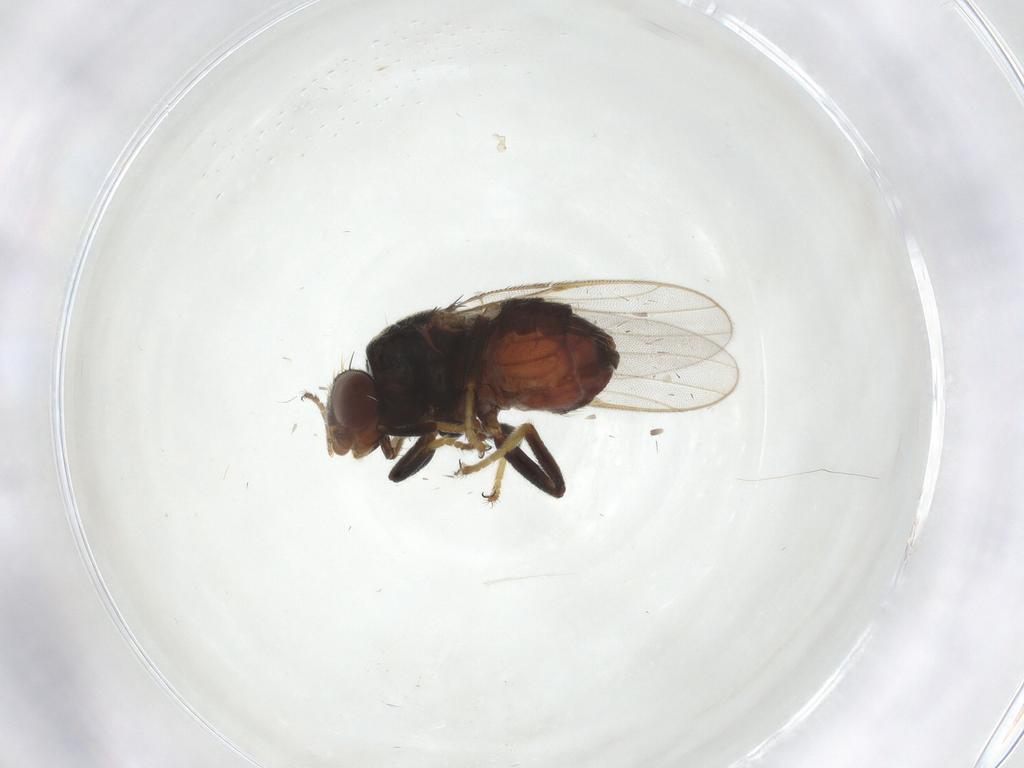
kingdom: Animalia
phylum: Arthropoda
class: Insecta
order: Diptera
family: Chloropidae
